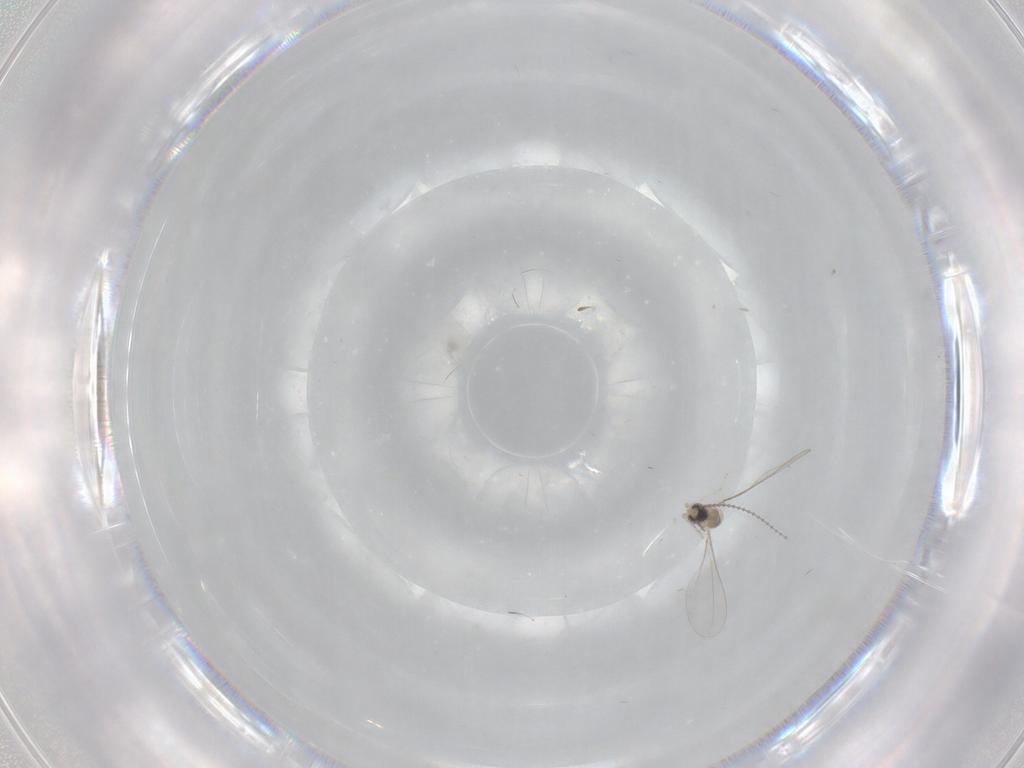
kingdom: Animalia
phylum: Arthropoda
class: Insecta
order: Diptera
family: Cecidomyiidae
